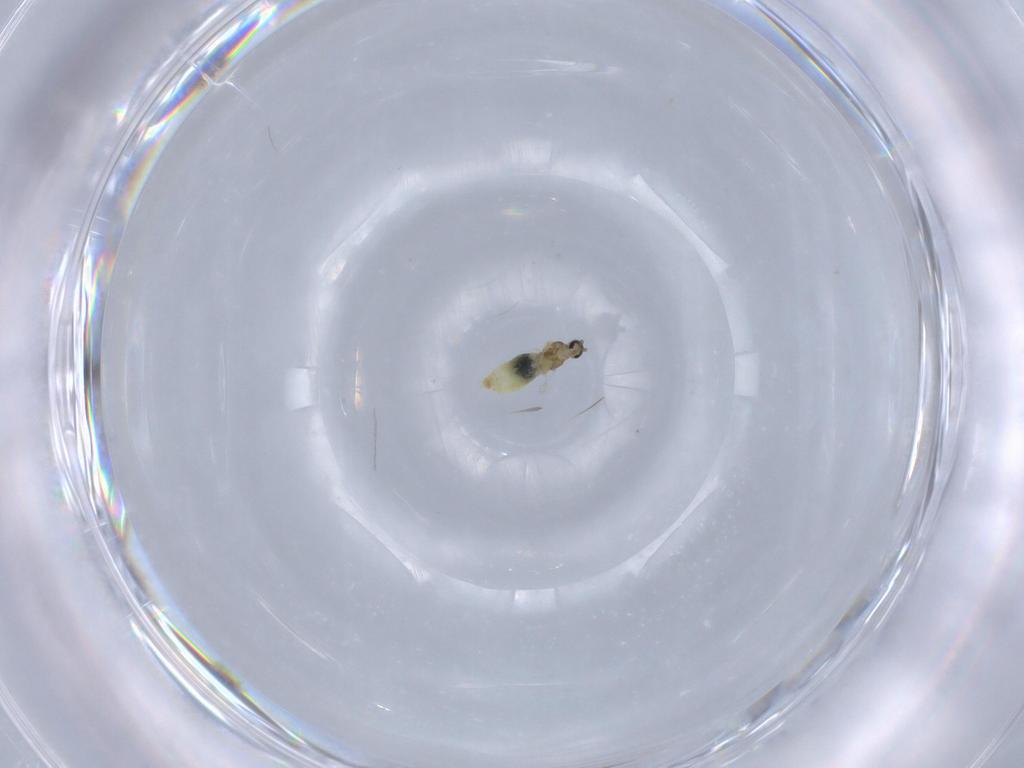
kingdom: Animalia
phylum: Arthropoda
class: Insecta
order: Diptera
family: Cecidomyiidae
